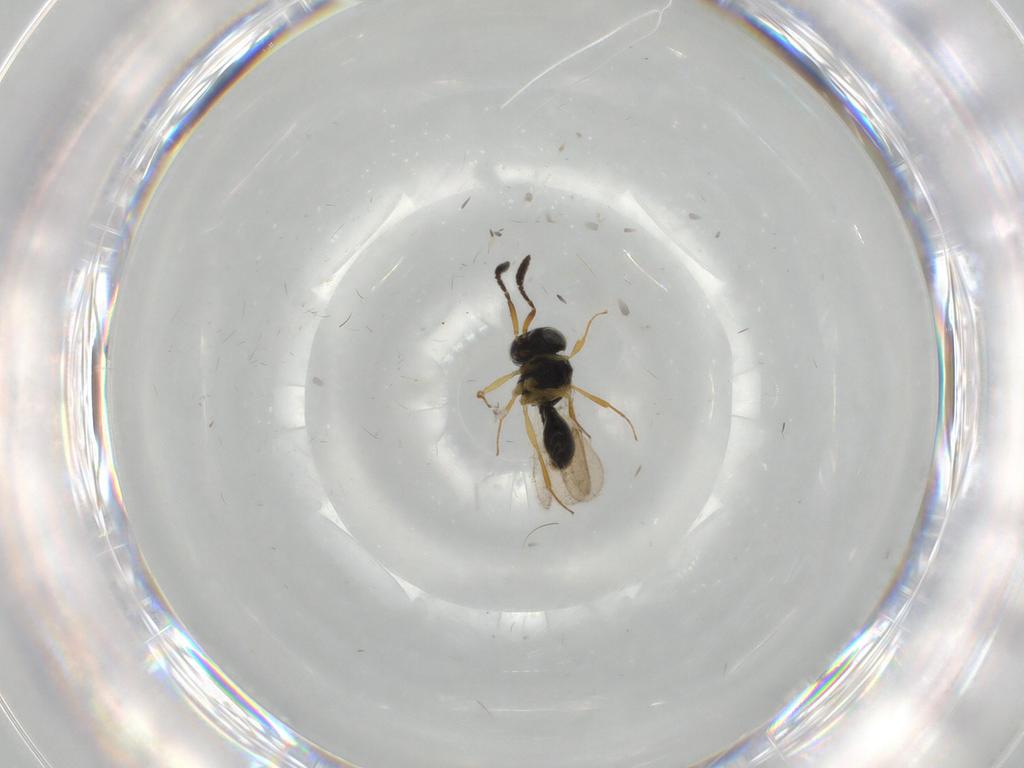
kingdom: Animalia
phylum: Arthropoda
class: Insecta
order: Hymenoptera
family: Scelionidae
